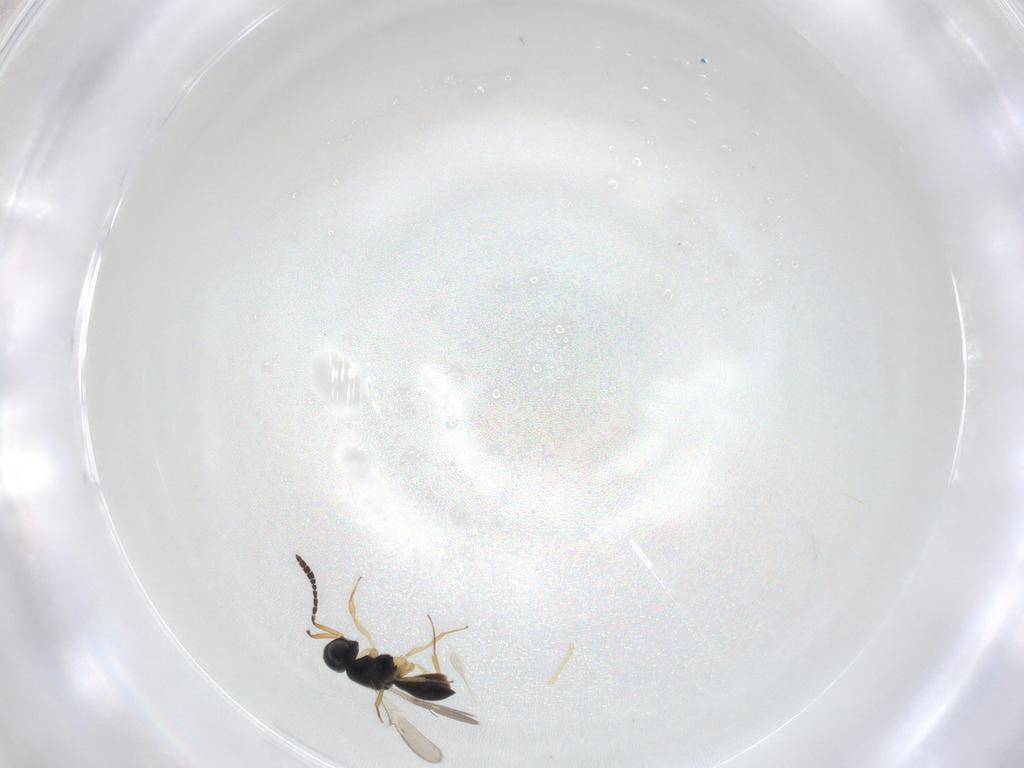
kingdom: Animalia
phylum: Arthropoda
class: Insecta
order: Hymenoptera
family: Scelionidae
